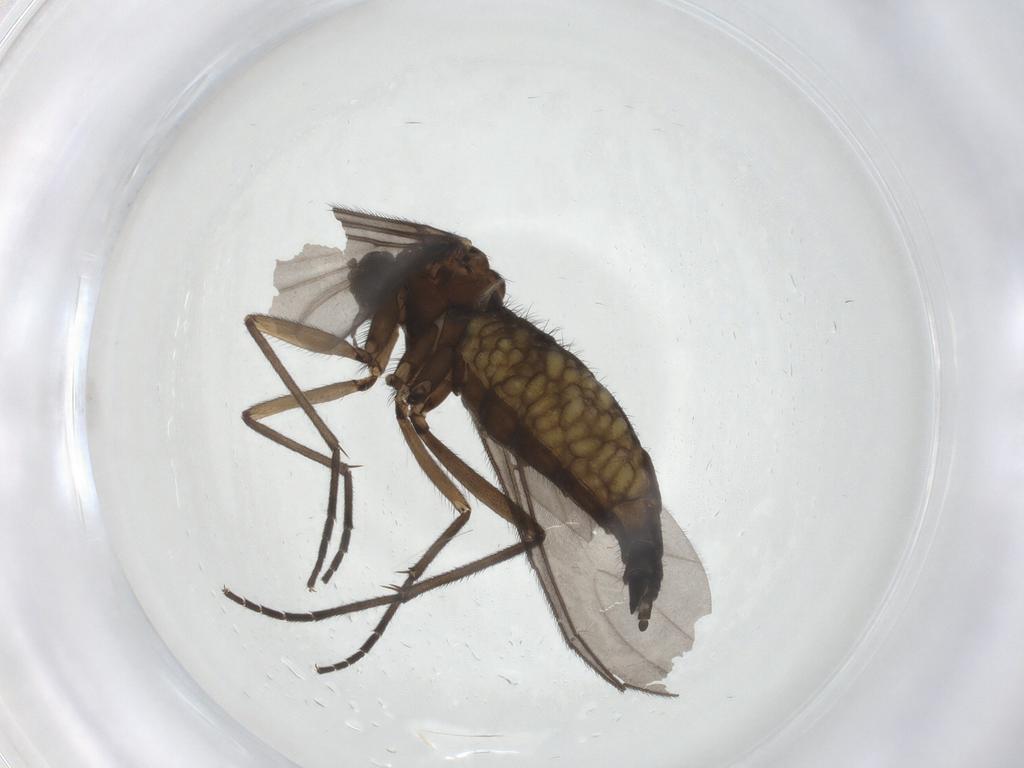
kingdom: Animalia
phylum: Arthropoda
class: Insecta
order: Diptera
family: Sciaridae
